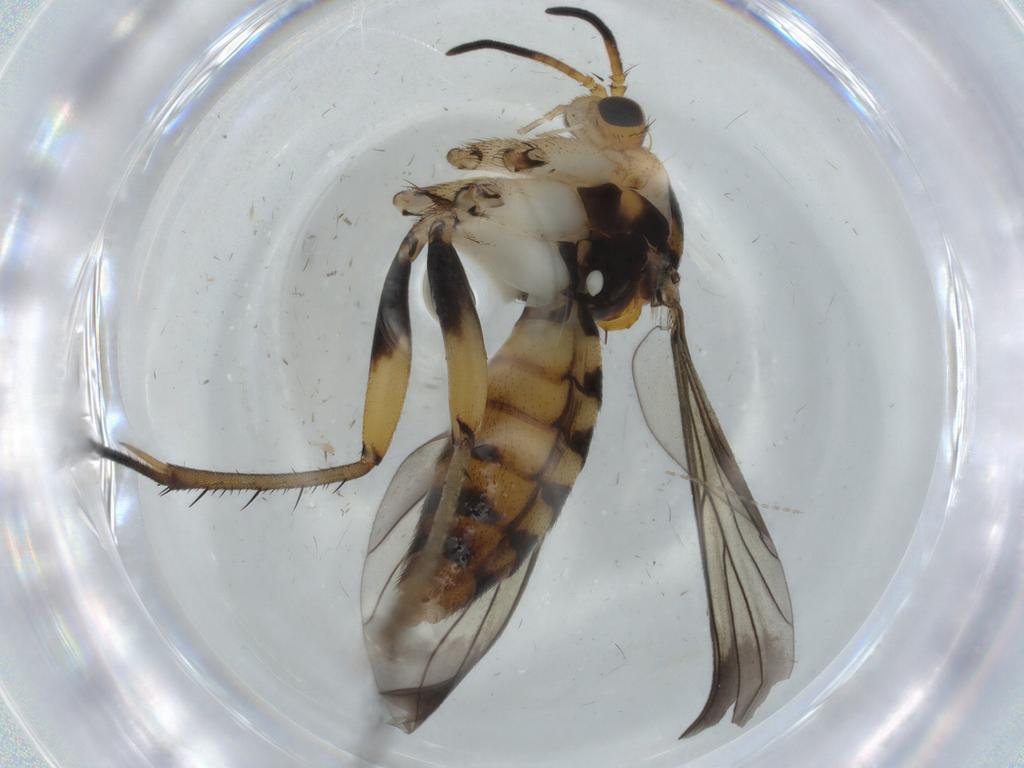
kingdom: Animalia
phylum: Arthropoda
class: Insecta
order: Diptera
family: Mycetophilidae
